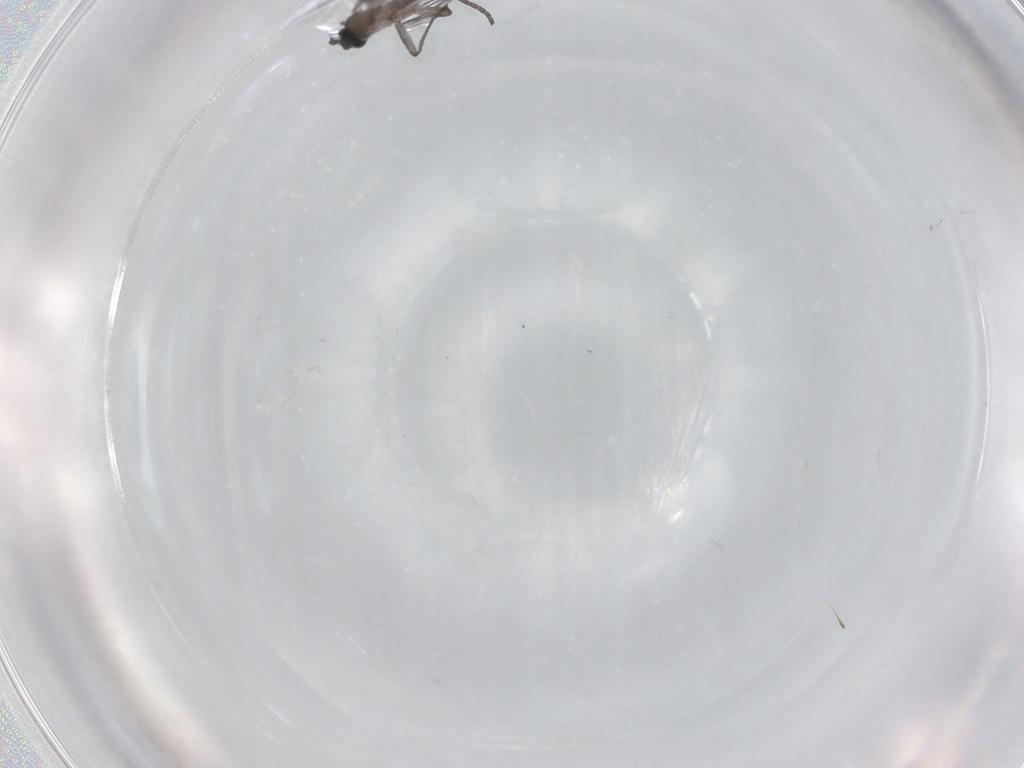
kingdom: Animalia
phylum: Arthropoda
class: Insecta
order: Diptera
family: Sciaridae
